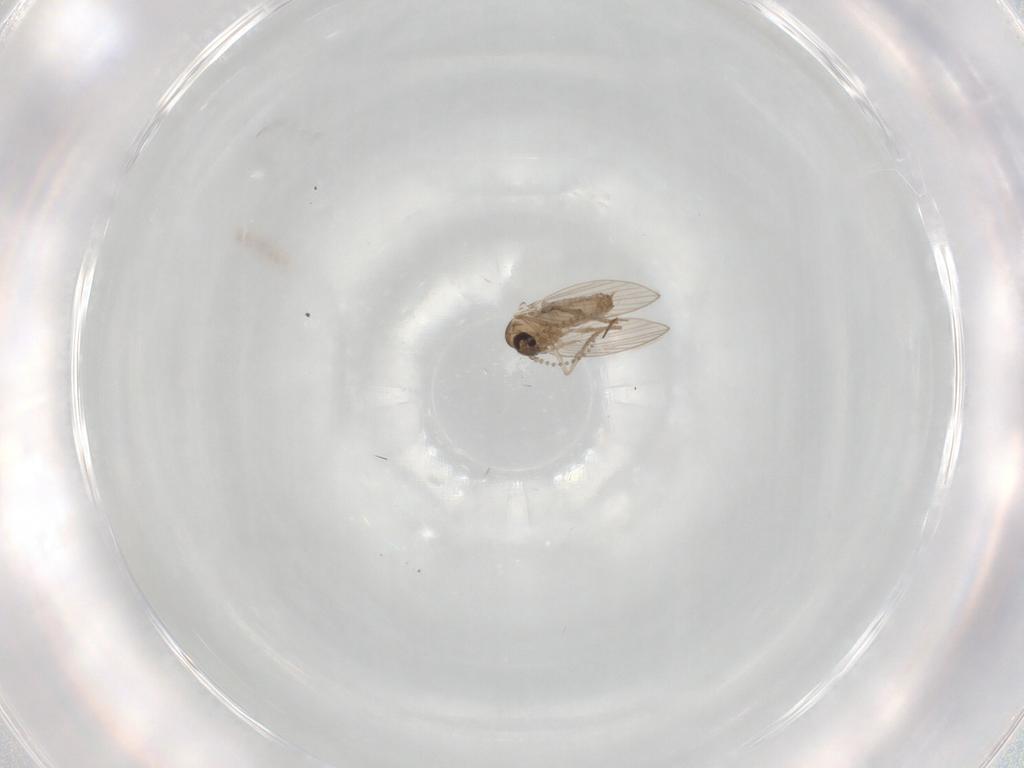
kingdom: Animalia
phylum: Arthropoda
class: Insecta
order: Diptera
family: Psychodidae
